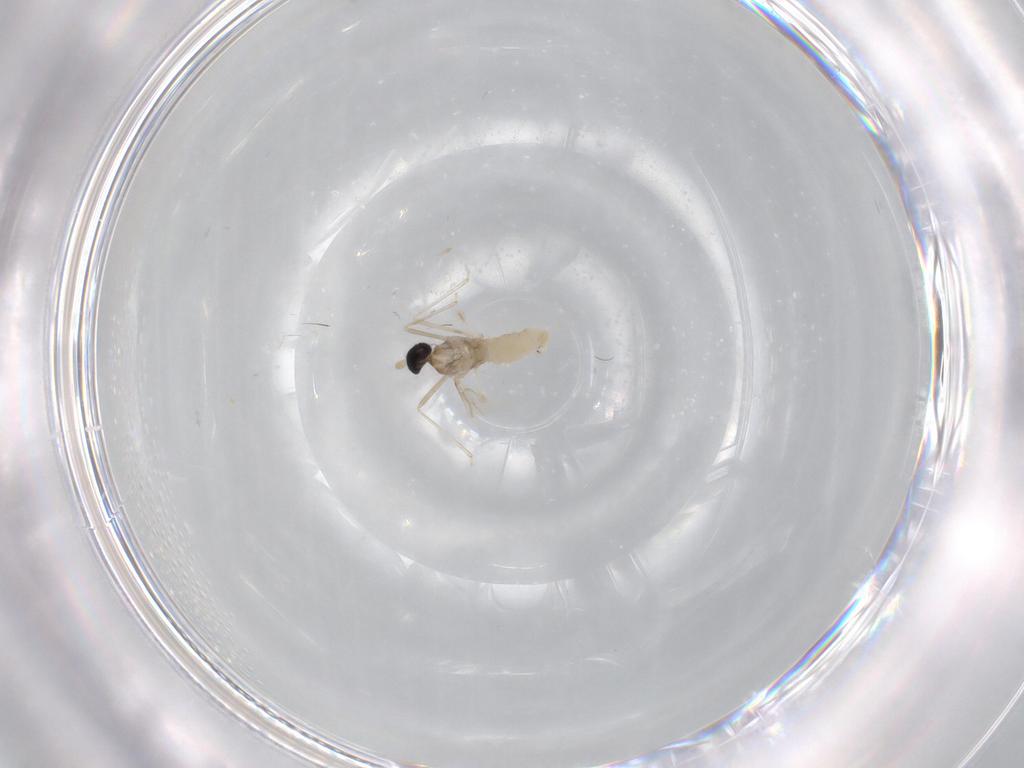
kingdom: Animalia
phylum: Arthropoda
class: Insecta
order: Diptera
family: Cecidomyiidae
